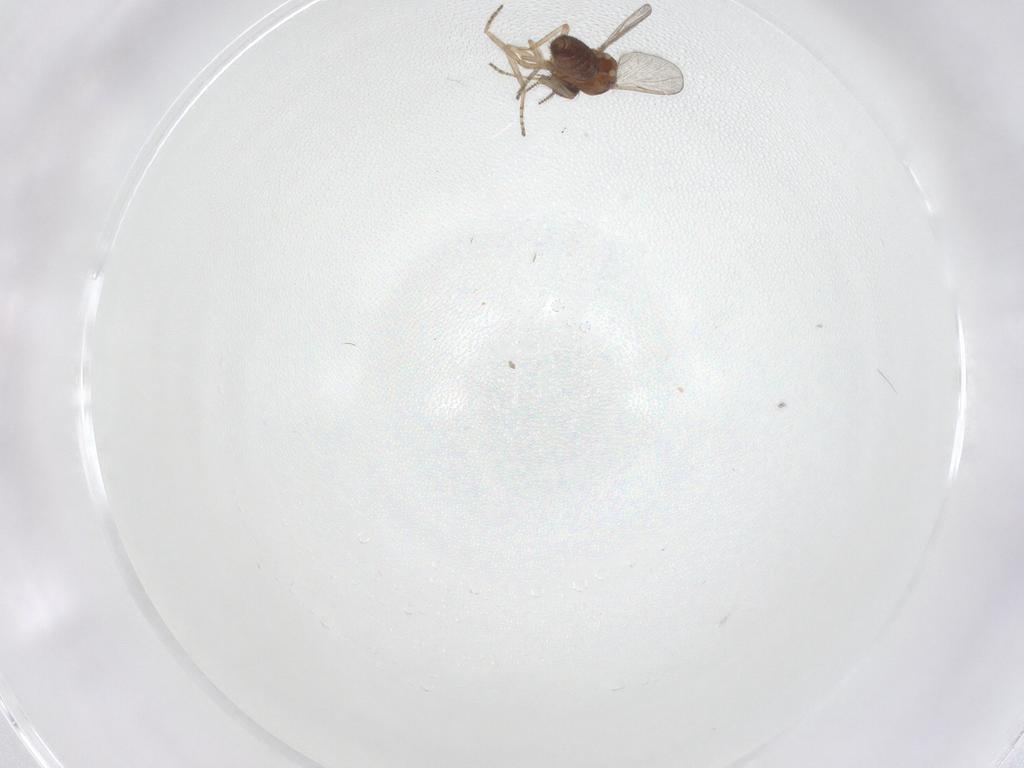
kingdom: Animalia
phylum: Arthropoda
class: Insecta
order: Diptera
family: Ceratopogonidae
